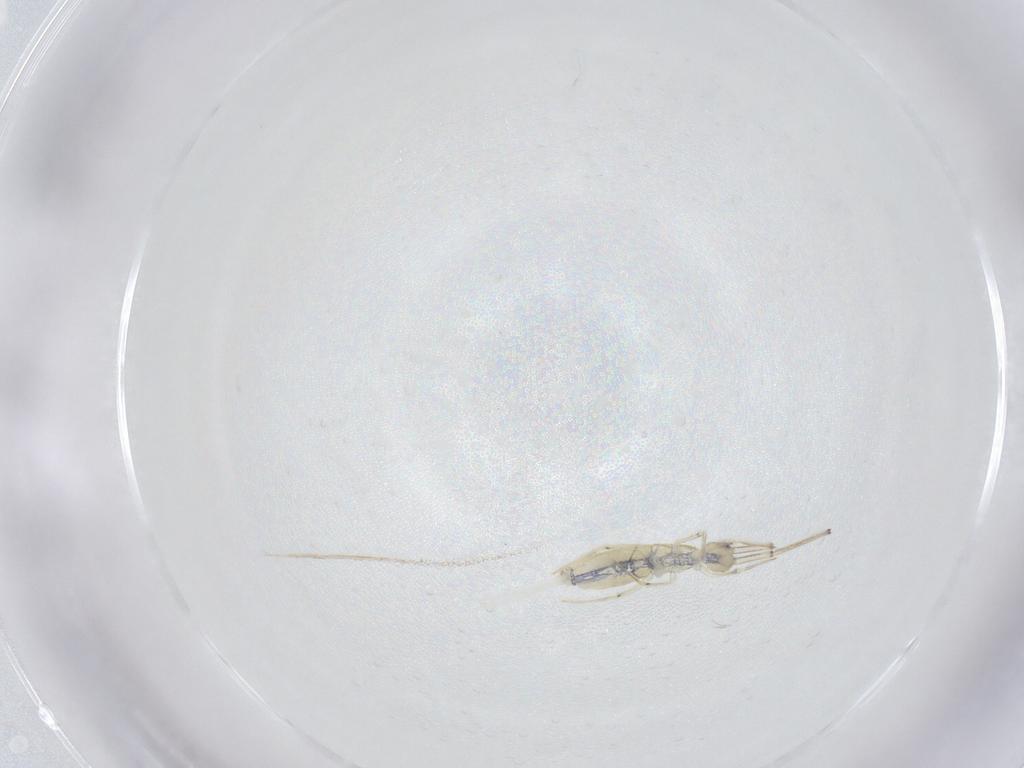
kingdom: Animalia
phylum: Arthropoda
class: Collembola
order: Entomobryomorpha
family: Paronellidae
